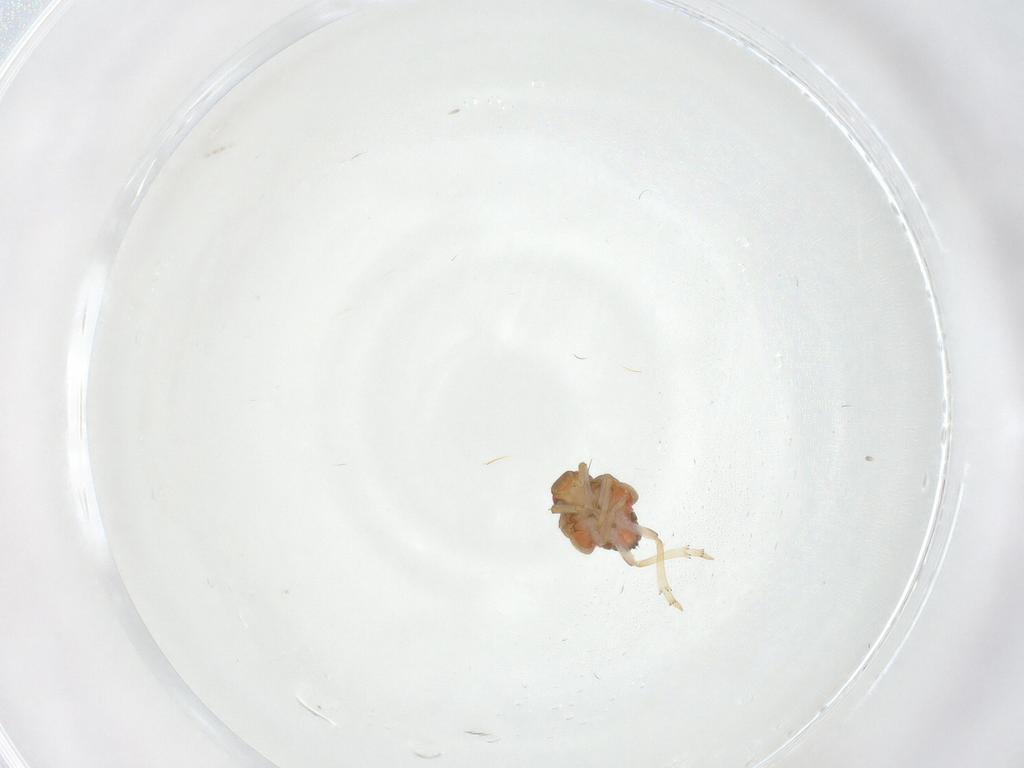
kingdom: Animalia
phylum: Arthropoda
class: Insecta
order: Hemiptera
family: Issidae
